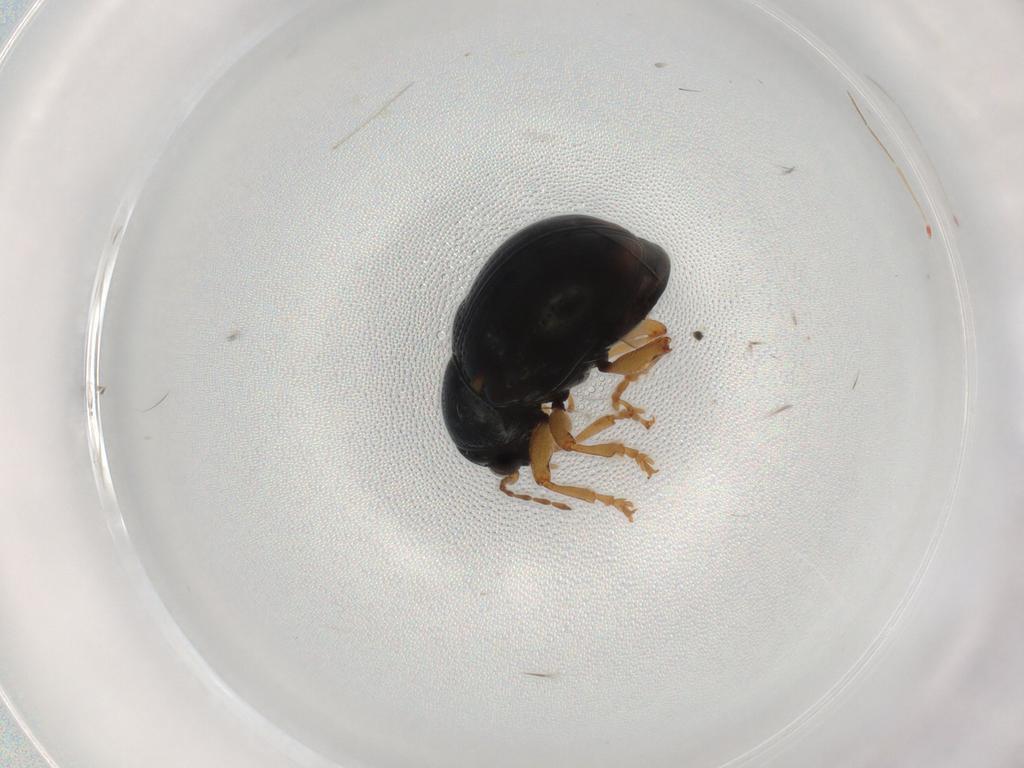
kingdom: Animalia
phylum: Arthropoda
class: Insecta
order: Coleoptera
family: Chrysomelidae
